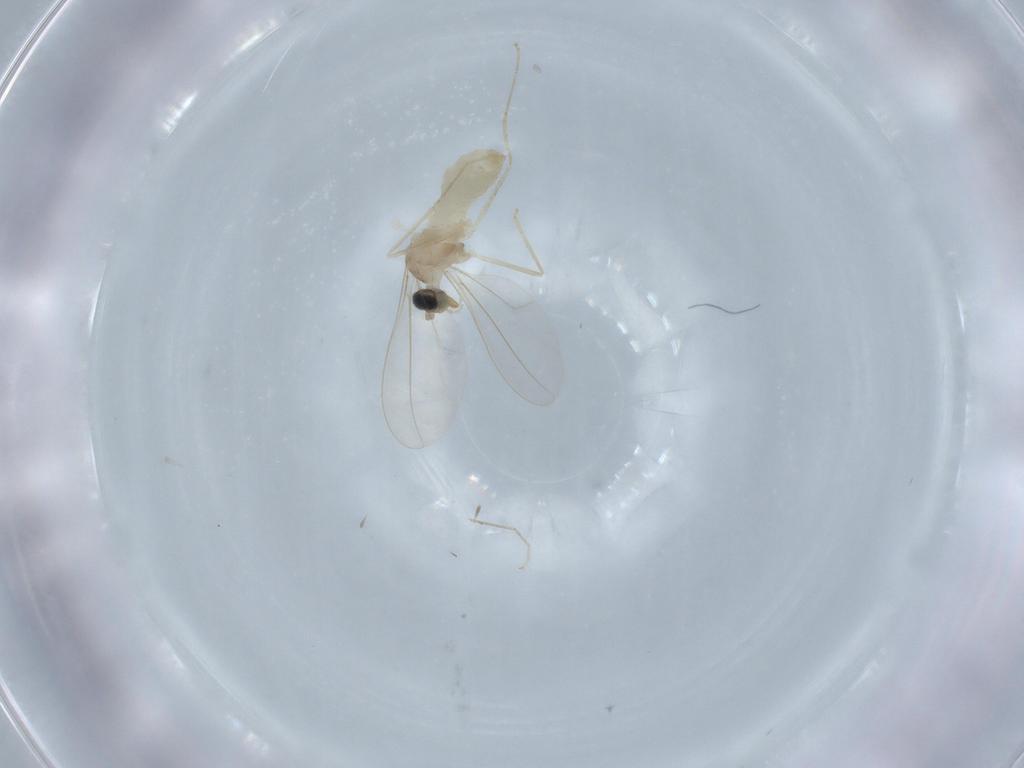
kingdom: Animalia
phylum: Arthropoda
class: Insecta
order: Diptera
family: Cecidomyiidae
